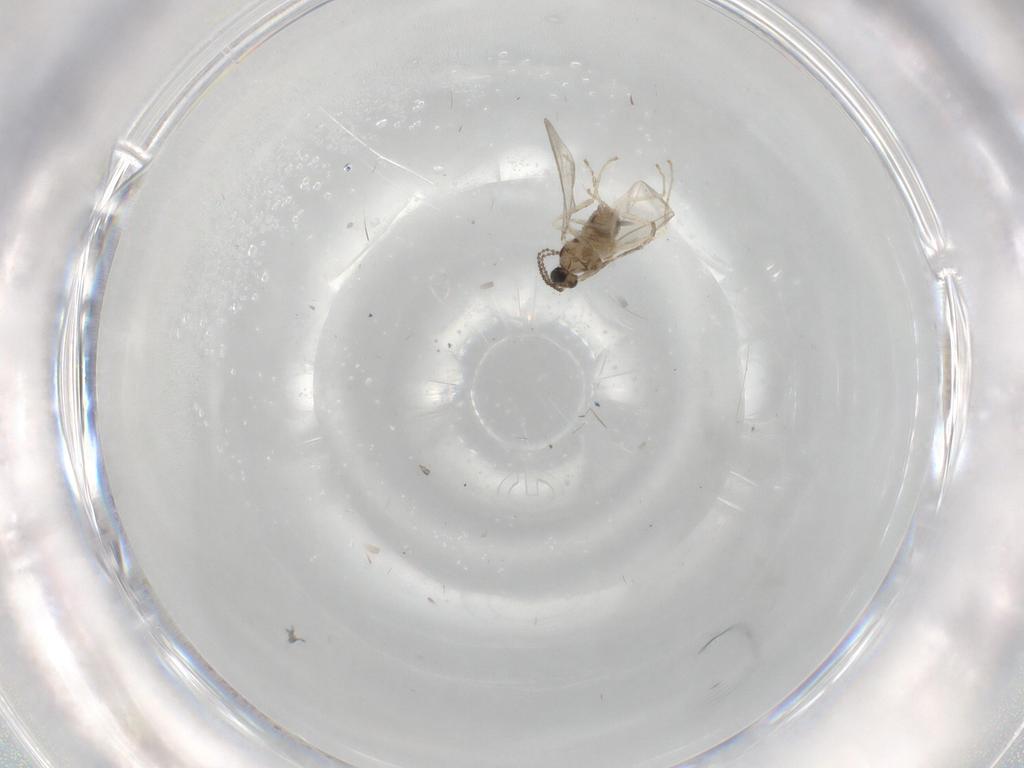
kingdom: Animalia
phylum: Arthropoda
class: Insecta
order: Diptera
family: Cecidomyiidae
